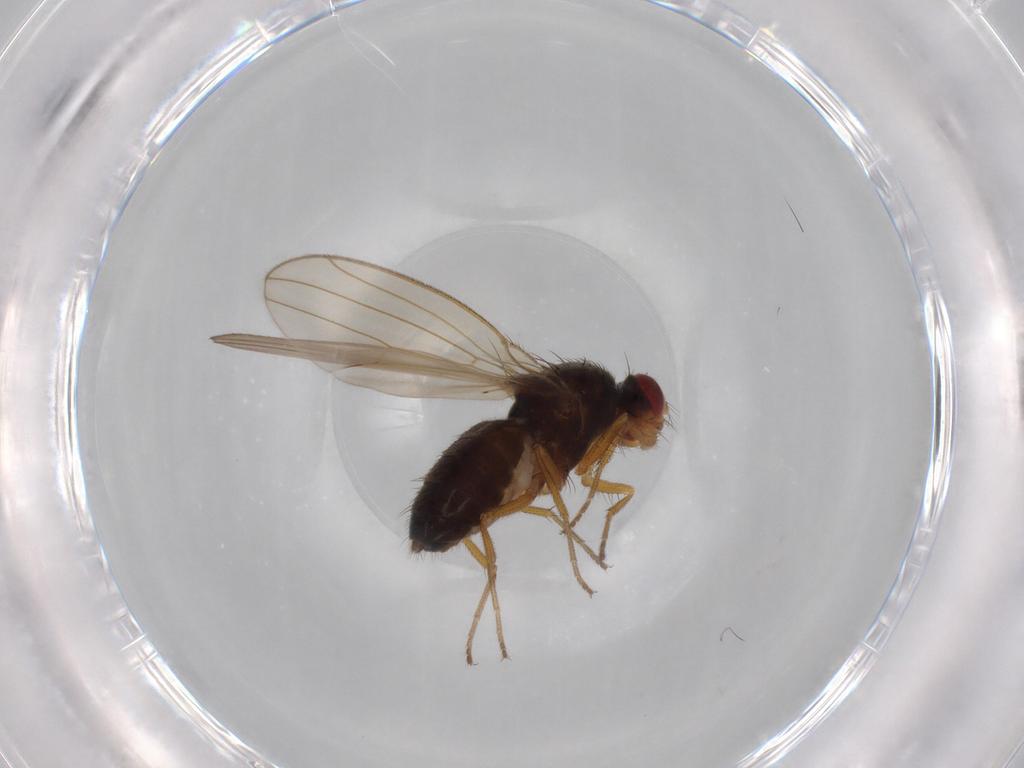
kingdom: Animalia
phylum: Arthropoda
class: Insecta
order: Diptera
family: Drosophilidae
